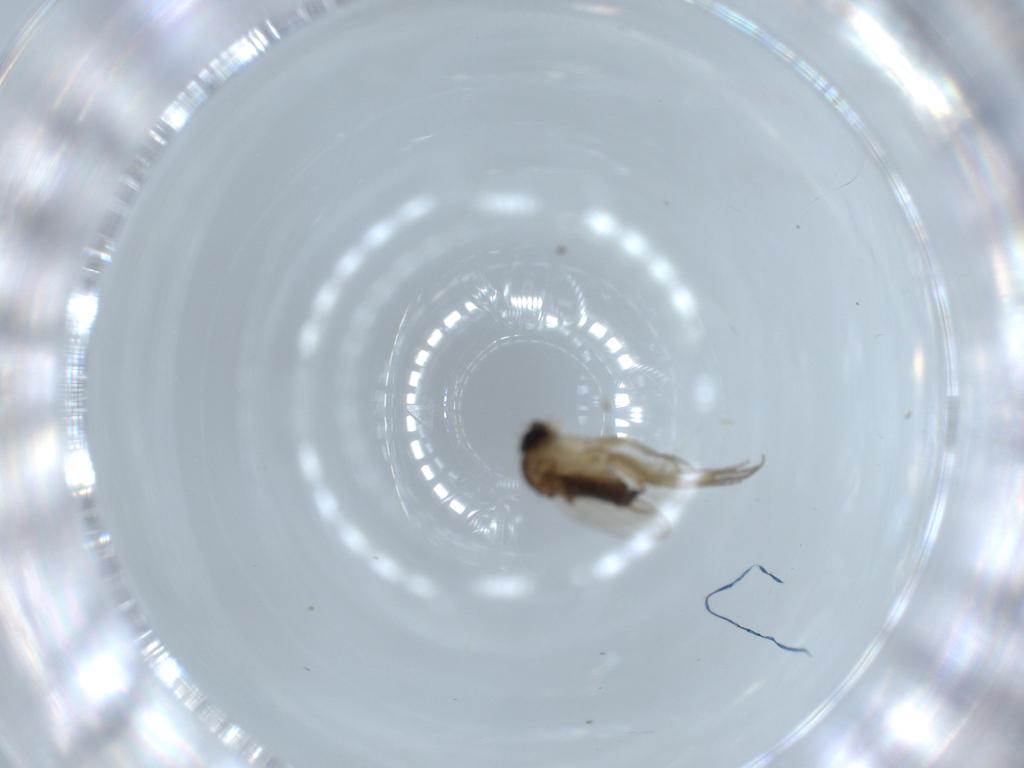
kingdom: Animalia
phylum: Arthropoda
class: Insecta
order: Diptera
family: Phoridae
